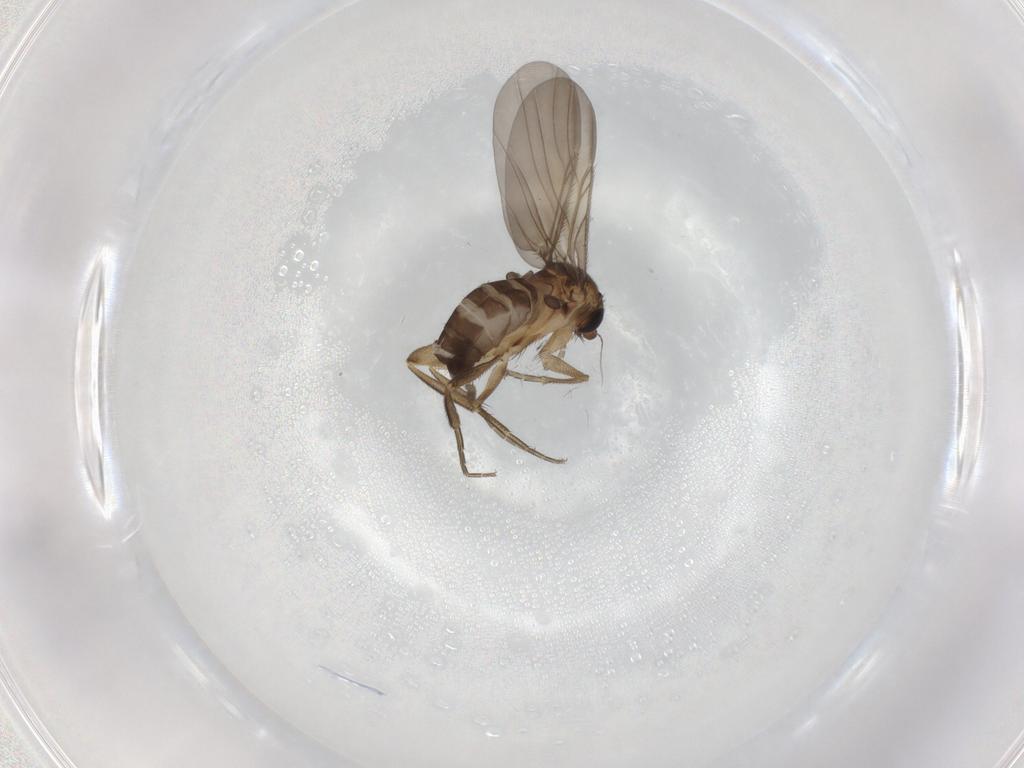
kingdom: Animalia
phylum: Arthropoda
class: Insecta
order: Diptera
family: Phoridae
